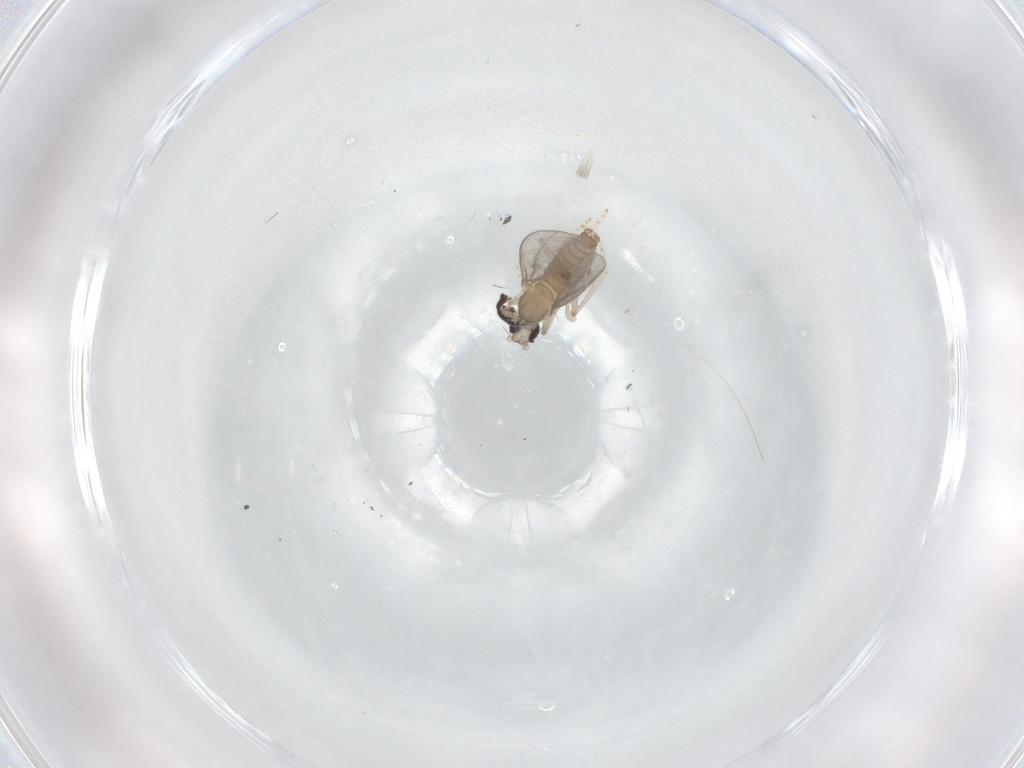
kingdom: Animalia
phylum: Arthropoda
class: Insecta
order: Diptera
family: Cecidomyiidae
